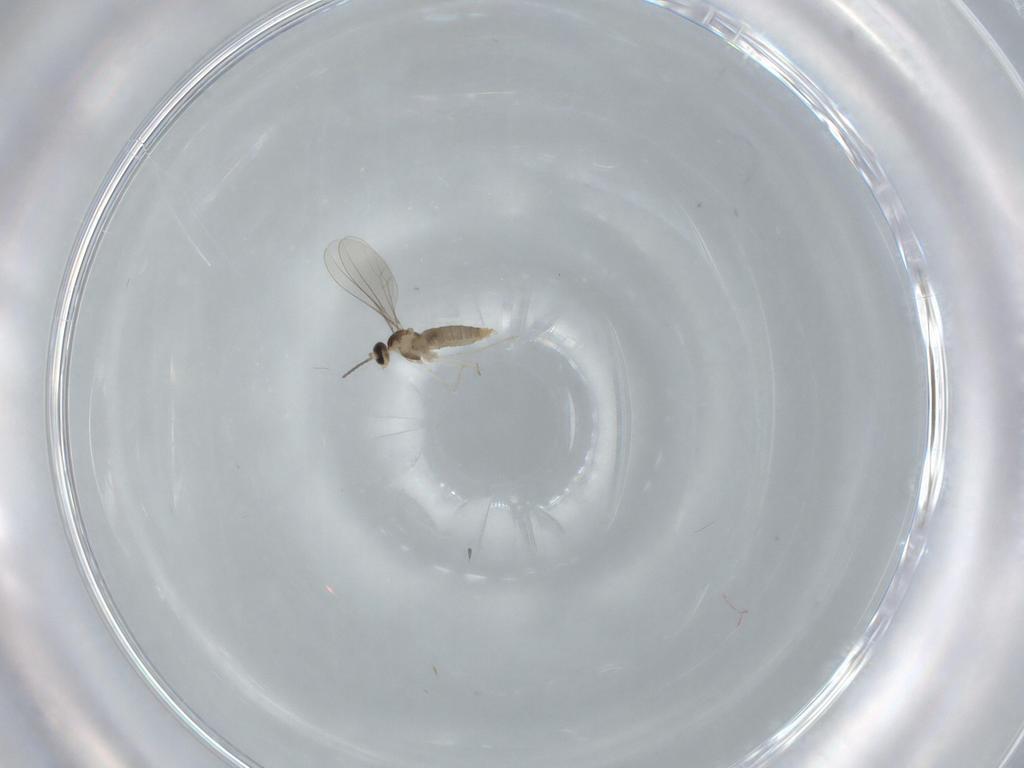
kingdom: Animalia
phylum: Arthropoda
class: Insecta
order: Diptera
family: Cecidomyiidae
